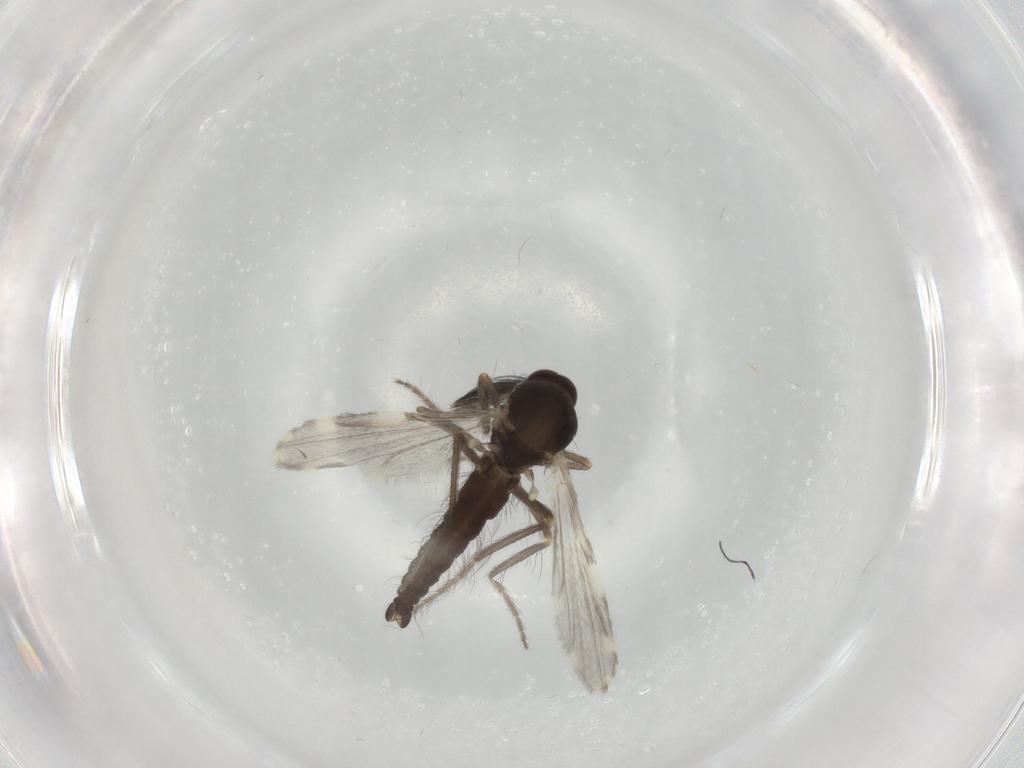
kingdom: Animalia
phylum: Arthropoda
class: Insecta
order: Diptera
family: Ceratopogonidae
